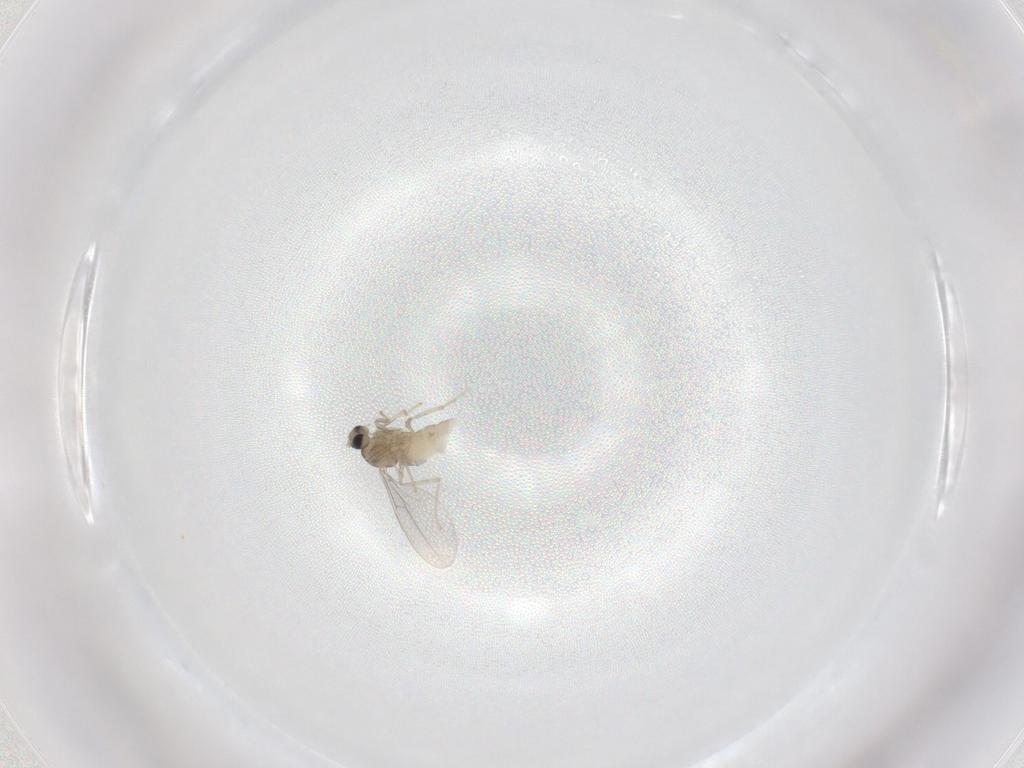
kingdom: Animalia
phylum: Arthropoda
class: Insecta
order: Diptera
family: Cecidomyiidae
